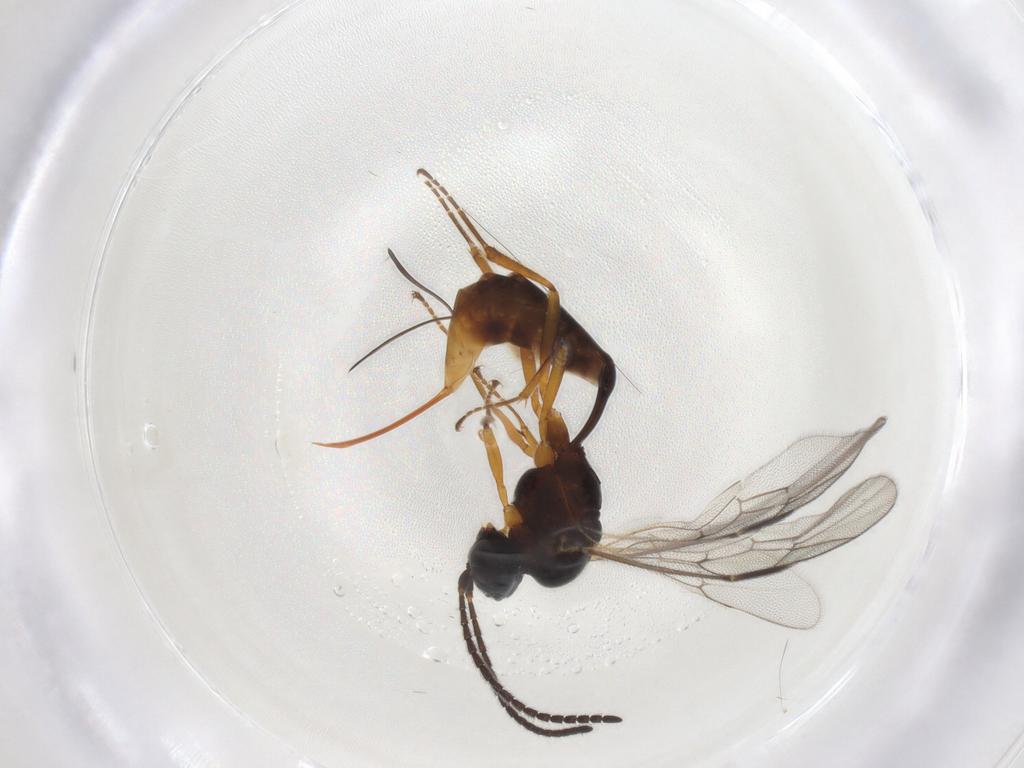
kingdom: Animalia
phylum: Arthropoda
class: Insecta
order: Hymenoptera
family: Ichneumonidae
